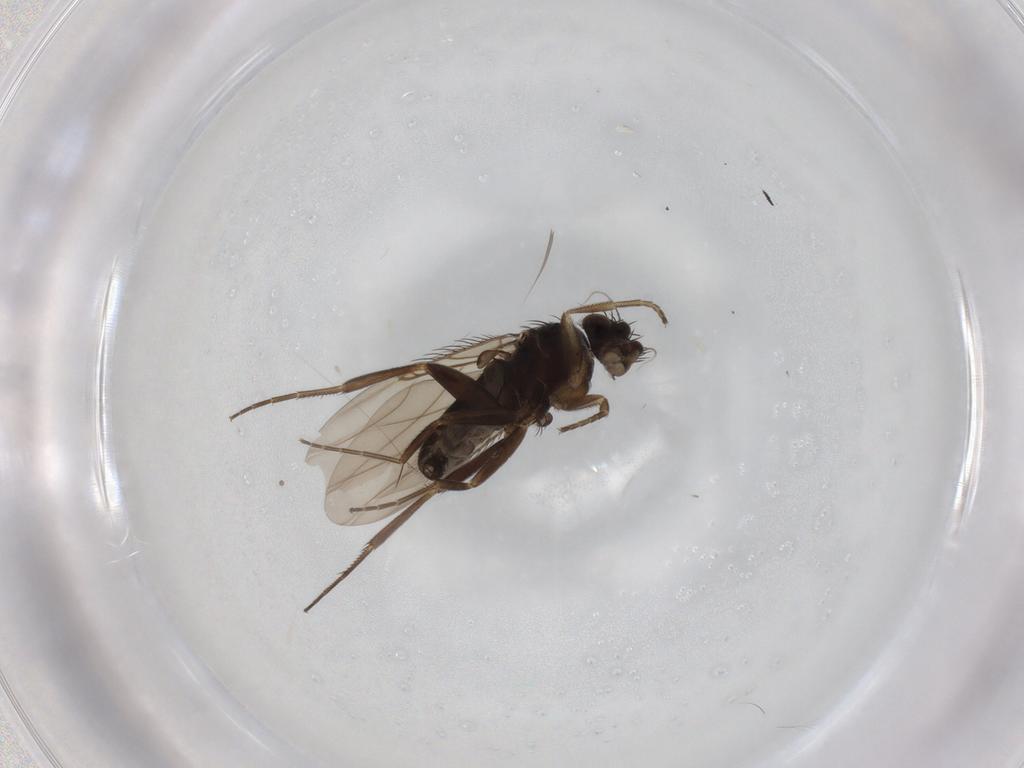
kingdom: Animalia
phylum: Arthropoda
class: Insecta
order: Diptera
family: Phoridae
